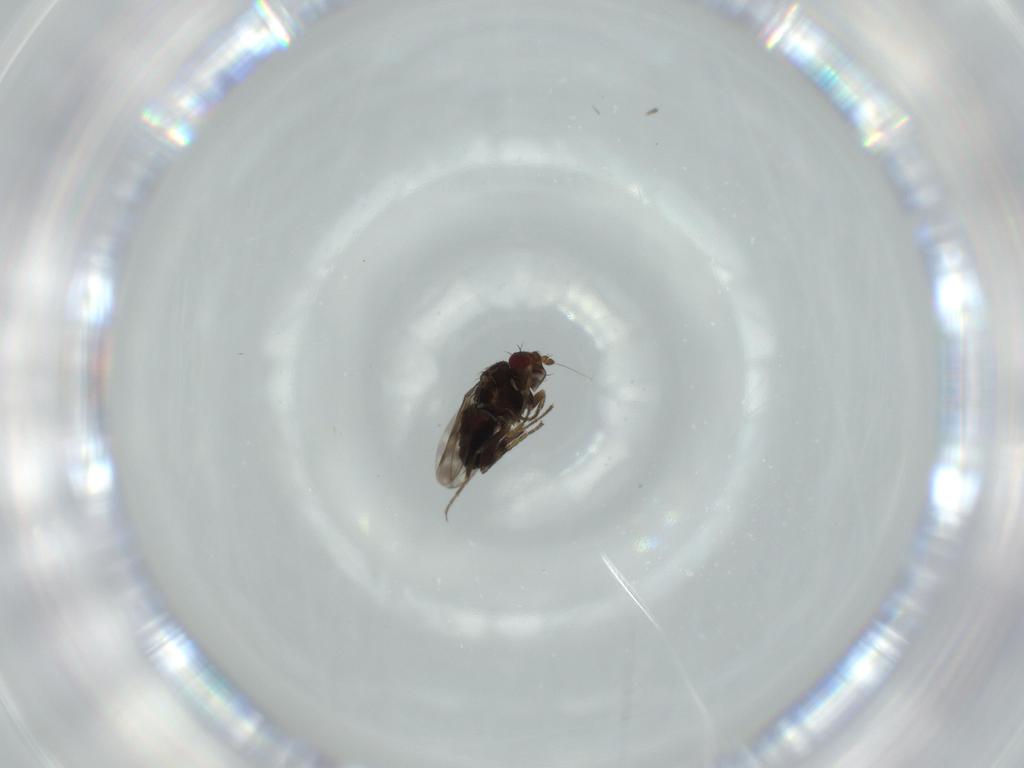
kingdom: Animalia
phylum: Arthropoda
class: Insecta
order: Diptera
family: Sphaeroceridae
